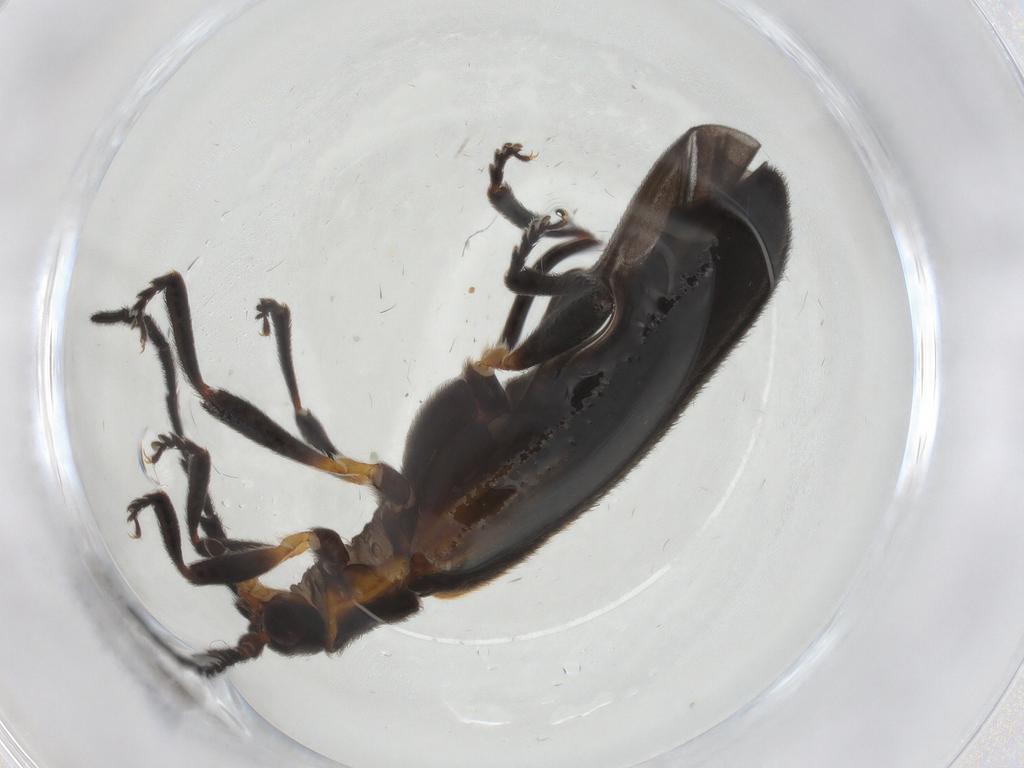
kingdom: Animalia
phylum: Arthropoda
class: Insecta
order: Coleoptera
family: Lycidae
